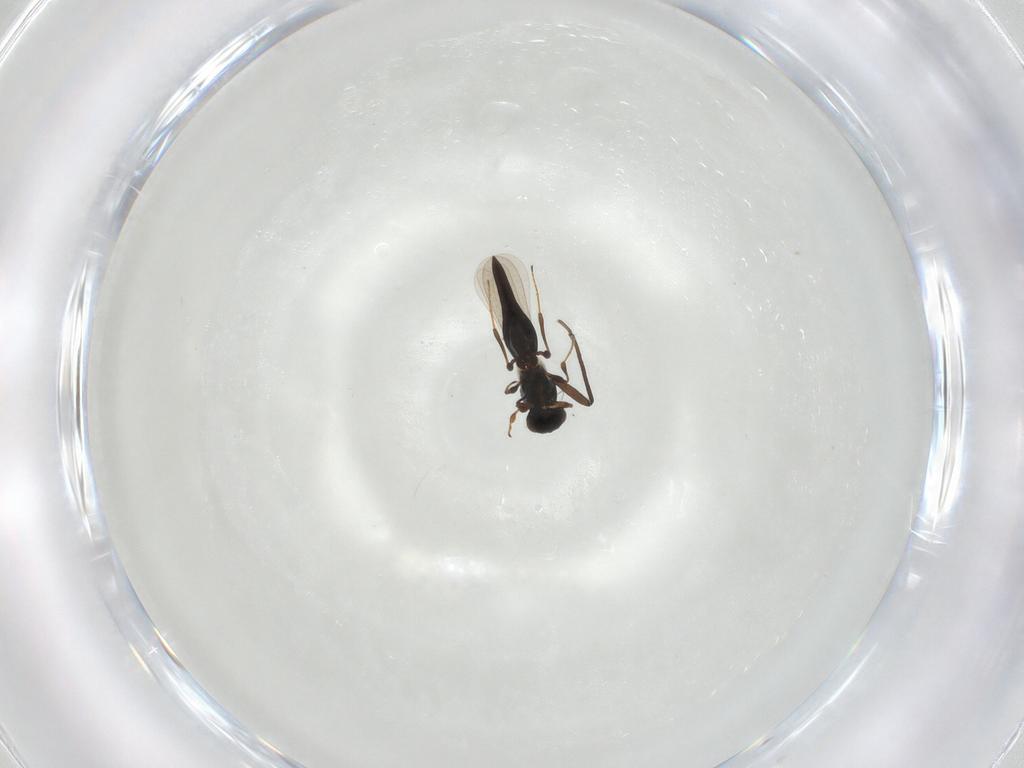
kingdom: Animalia
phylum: Arthropoda
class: Insecta
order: Hymenoptera
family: Platygastridae
